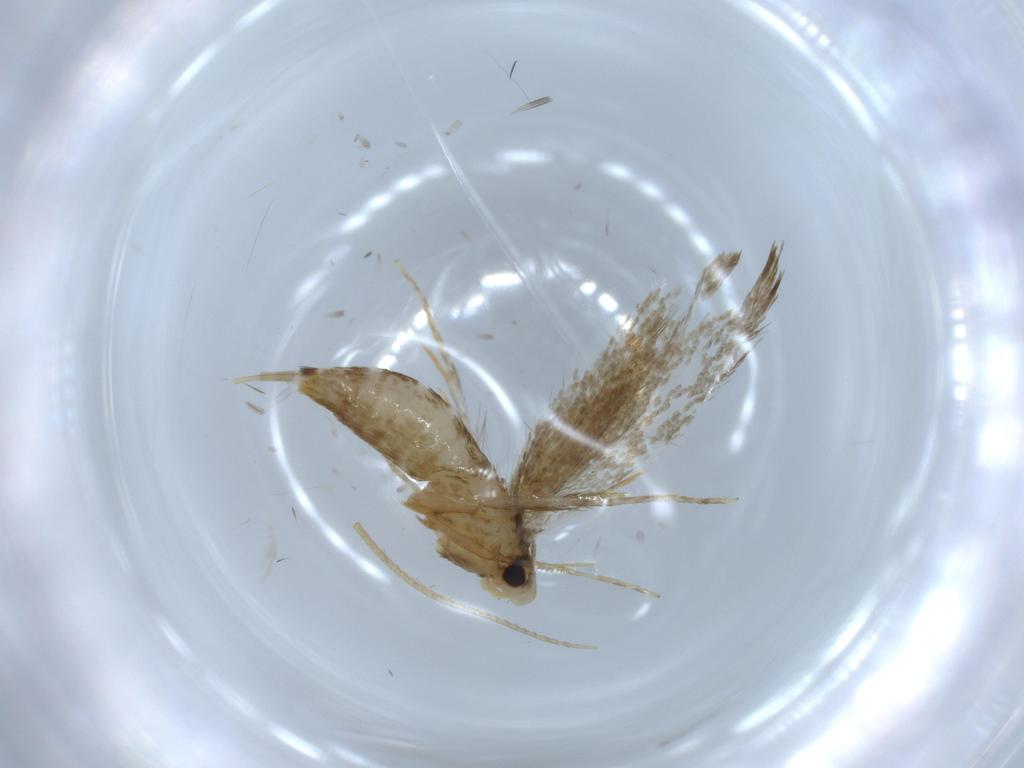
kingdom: Animalia
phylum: Arthropoda
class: Insecta
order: Lepidoptera
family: Tineidae
